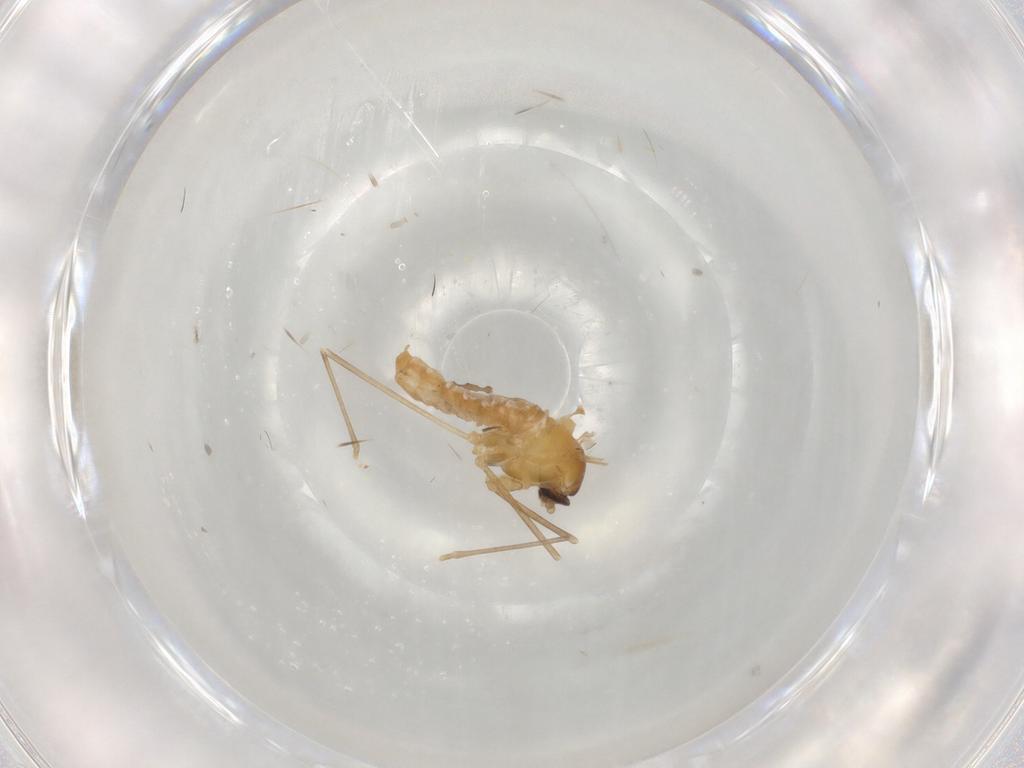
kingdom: Animalia
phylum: Arthropoda
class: Insecta
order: Diptera
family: Cecidomyiidae
